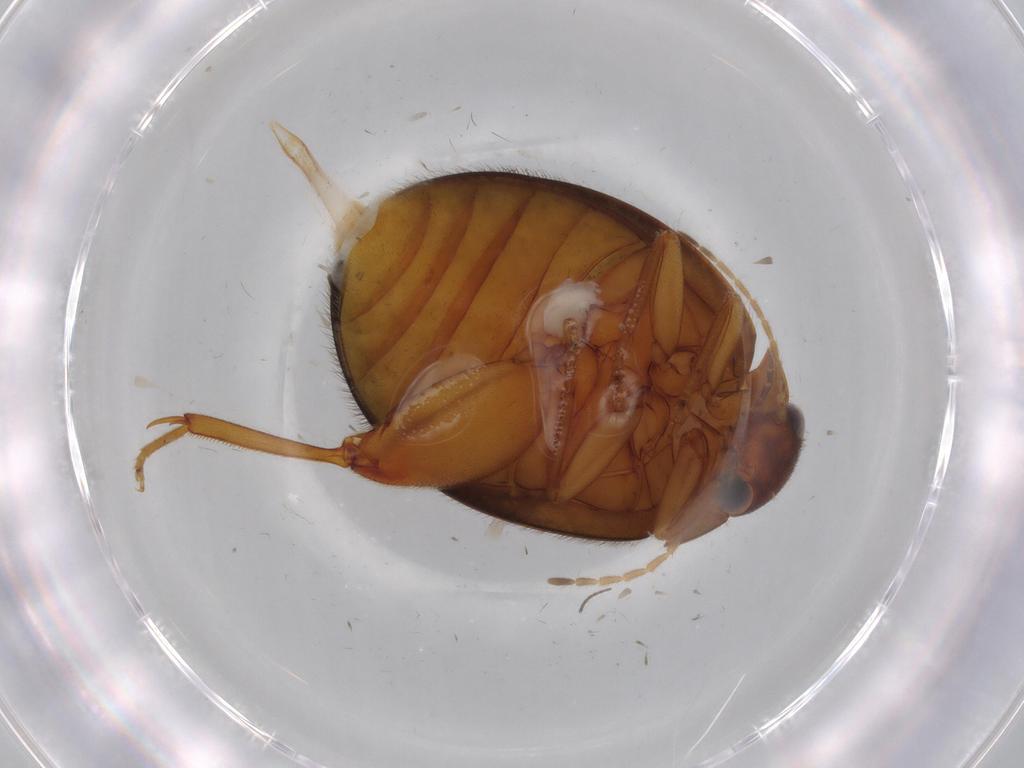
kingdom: Animalia
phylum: Arthropoda
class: Insecta
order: Coleoptera
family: Scirtidae
